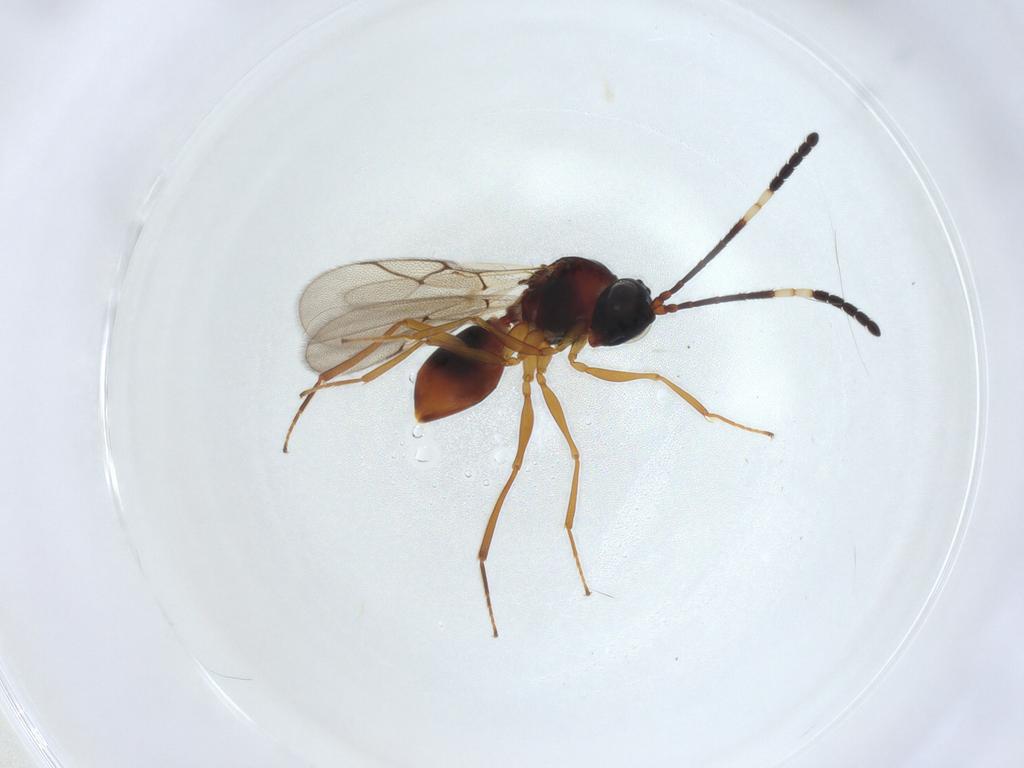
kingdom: Animalia
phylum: Arthropoda
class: Insecta
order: Hymenoptera
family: Figitidae
